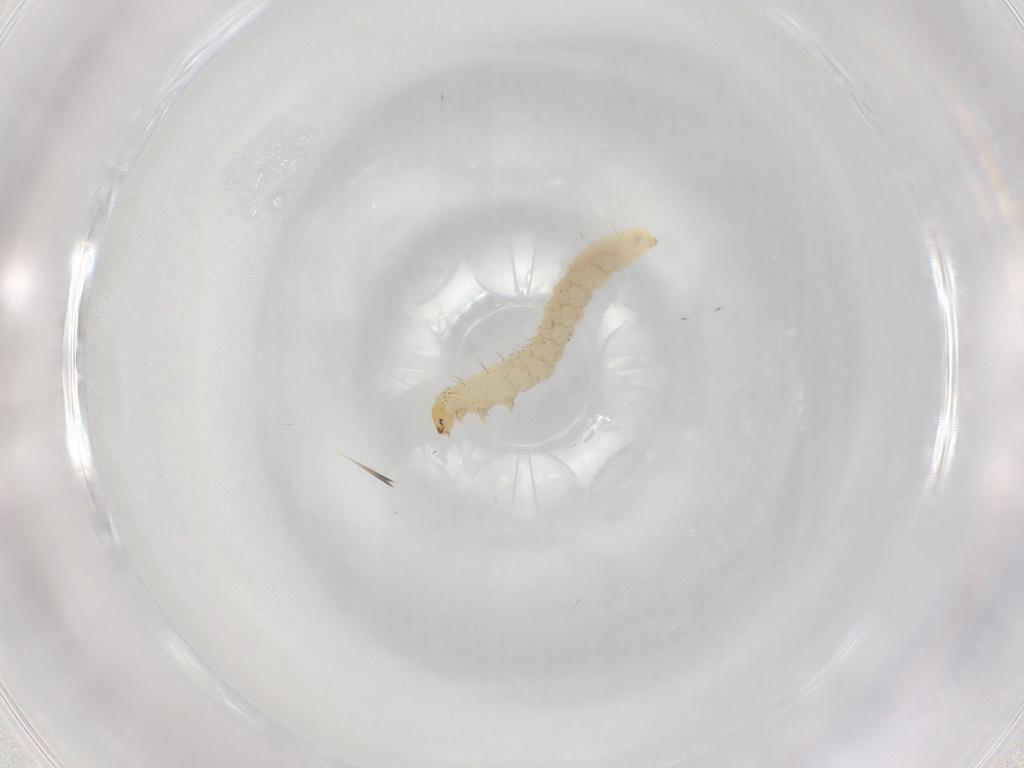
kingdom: Animalia
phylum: Arthropoda
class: Insecta
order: Lepidoptera
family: Bucculatricidae
